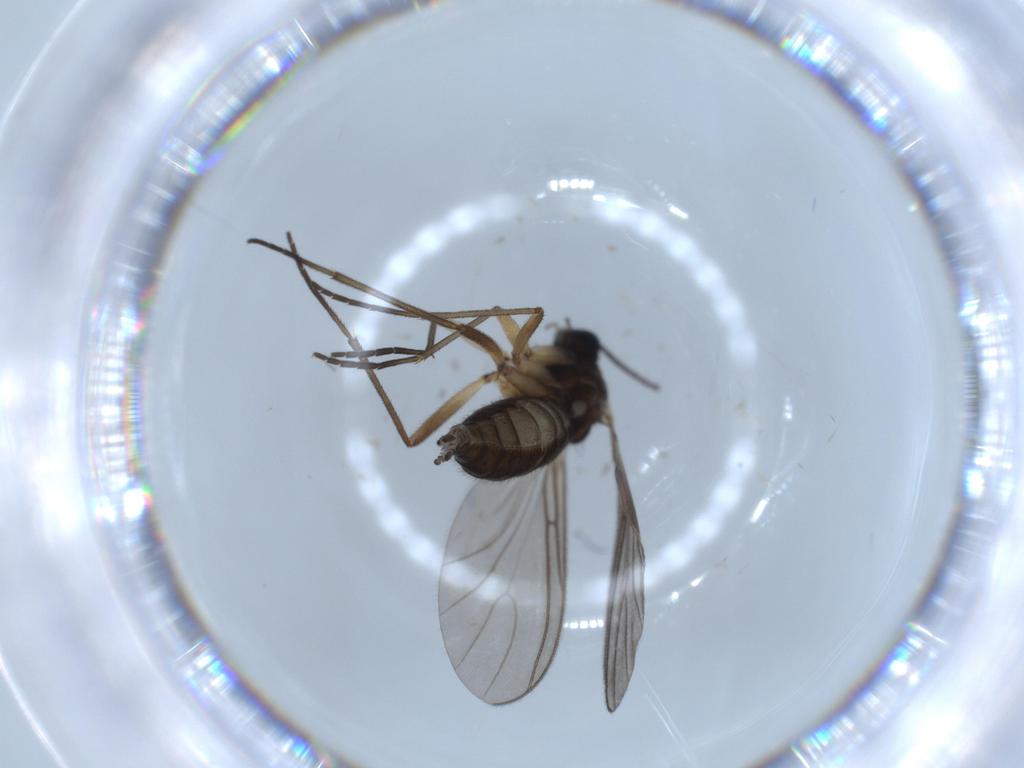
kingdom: Animalia
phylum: Arthropoda
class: Insecta
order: Diptera
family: Sciaridae
